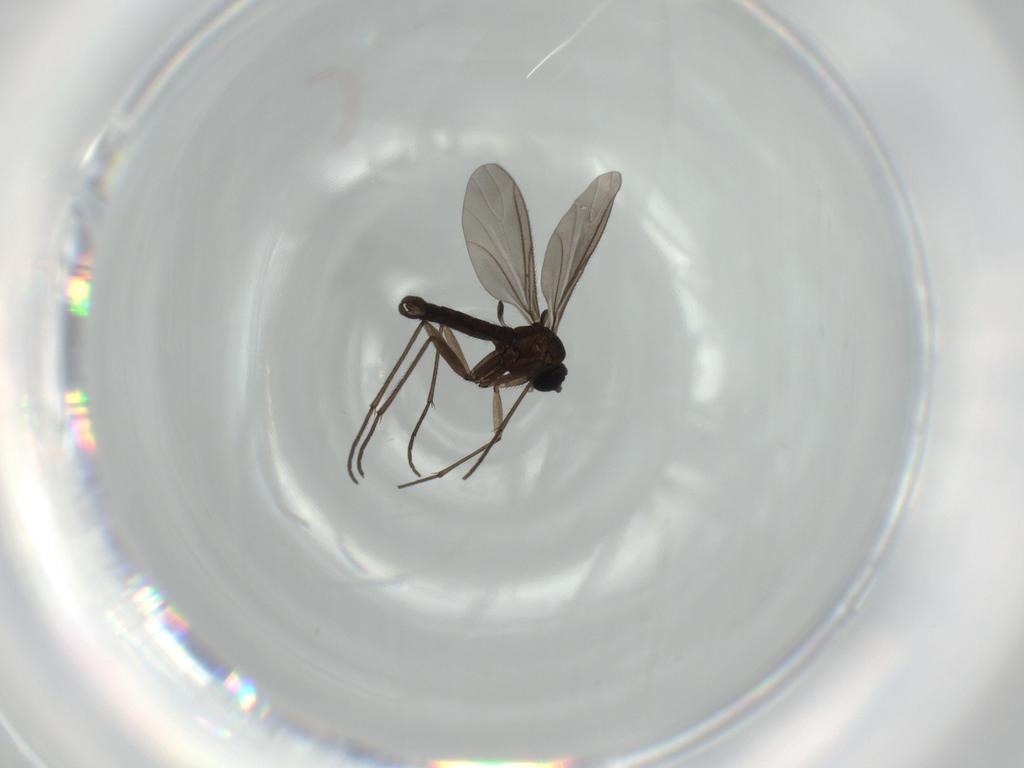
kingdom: Animalia
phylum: Arthropoda
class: Insecta
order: Diptera
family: Sciaridae
